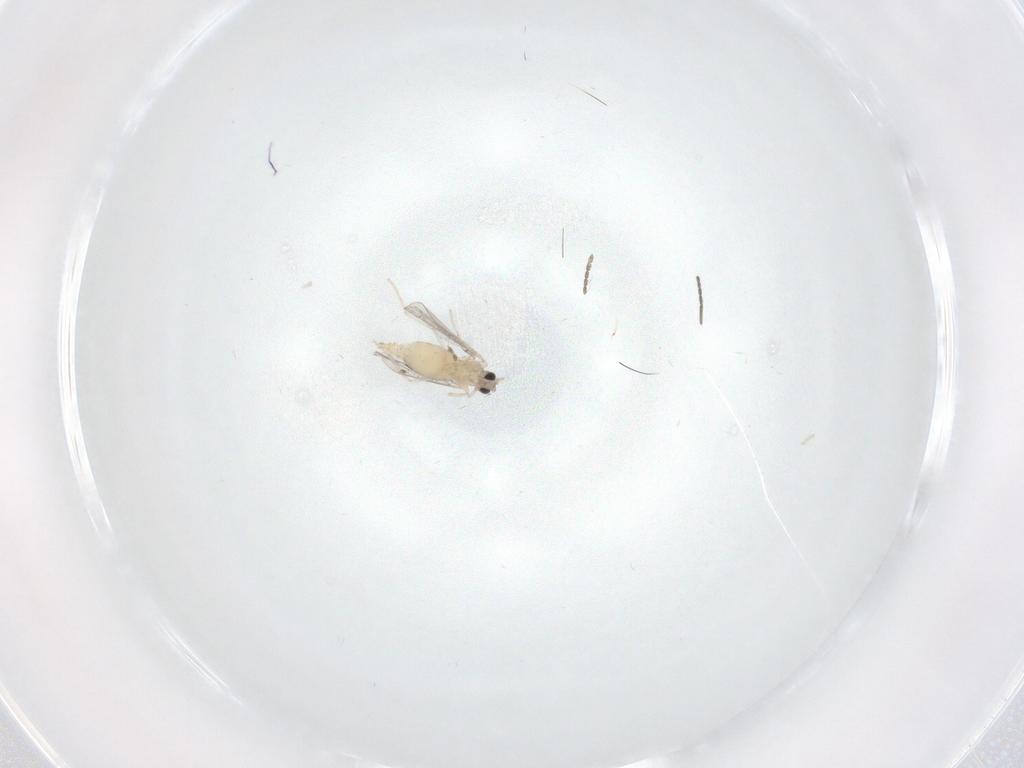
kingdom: Animalia
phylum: Arthropoda
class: Insecta
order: Diptera
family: Cecidomyiidae
